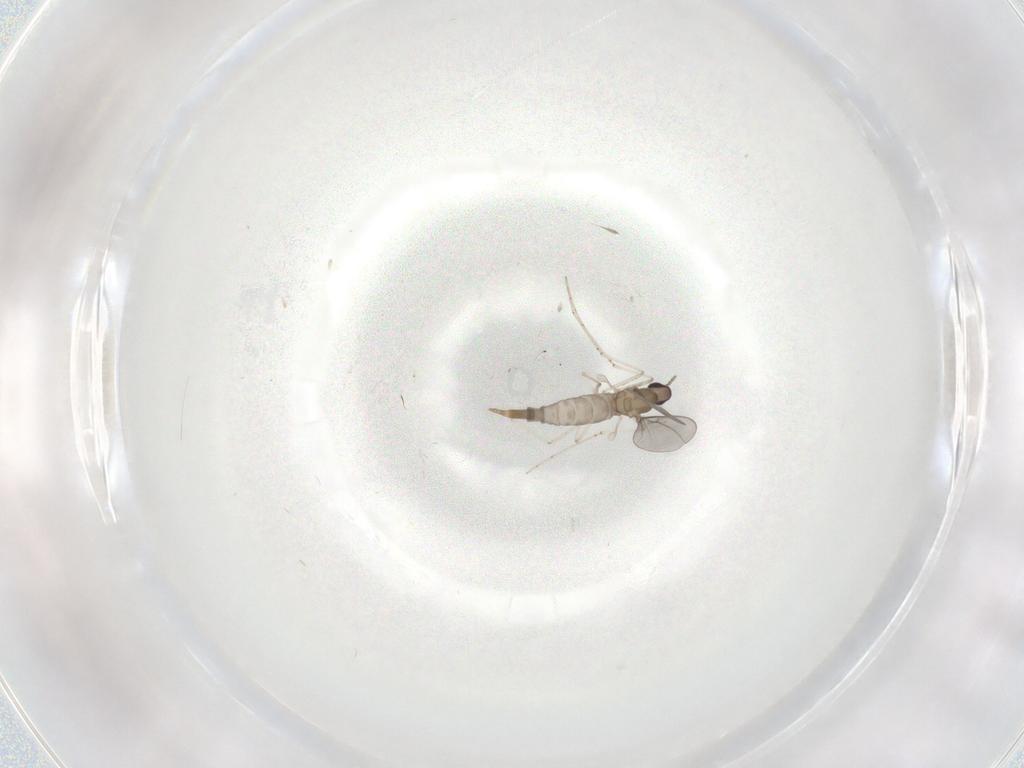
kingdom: Animalia
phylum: Arthropoda
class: Insecta
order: Diptera
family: Cecidomyiidae
